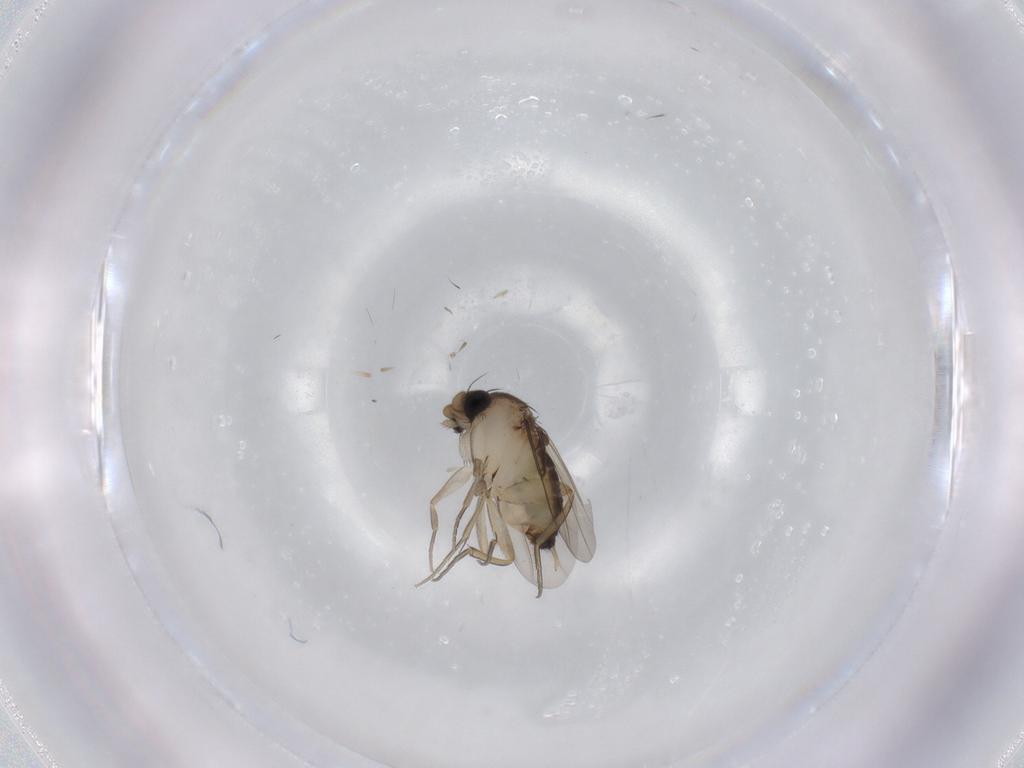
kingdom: Animalia
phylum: Arthropoda
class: Insecta
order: Diptera
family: Phoridae
